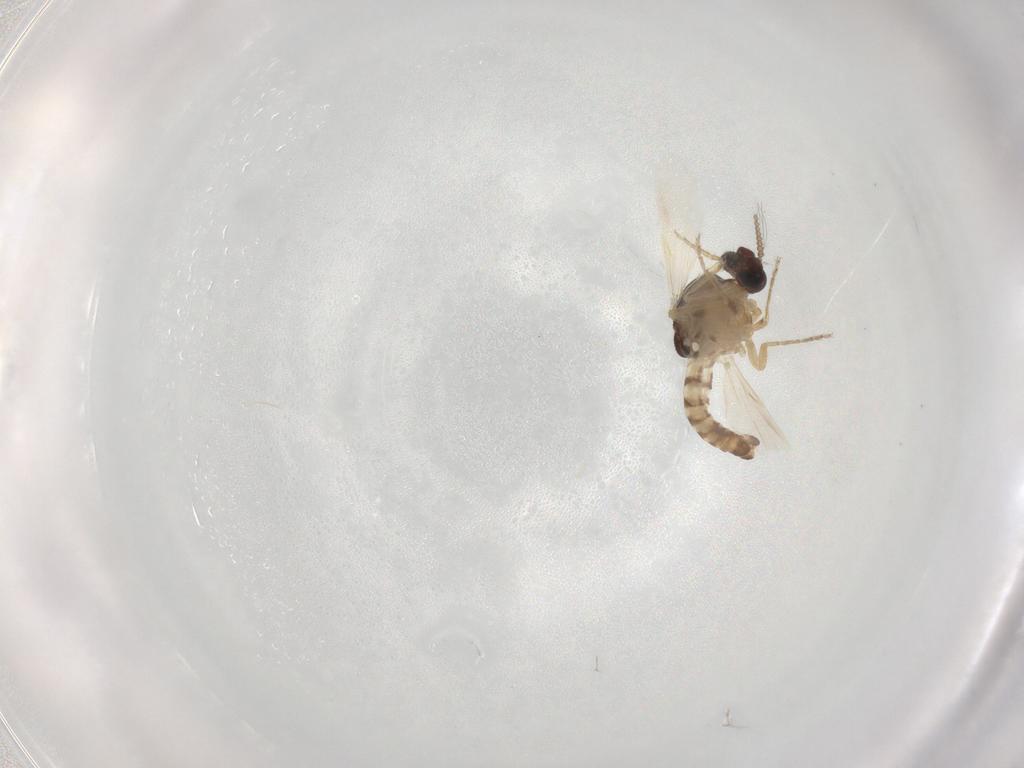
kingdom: Animalia
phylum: Arthropoda
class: Insecta
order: Diptera
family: Ceratopogonidae
